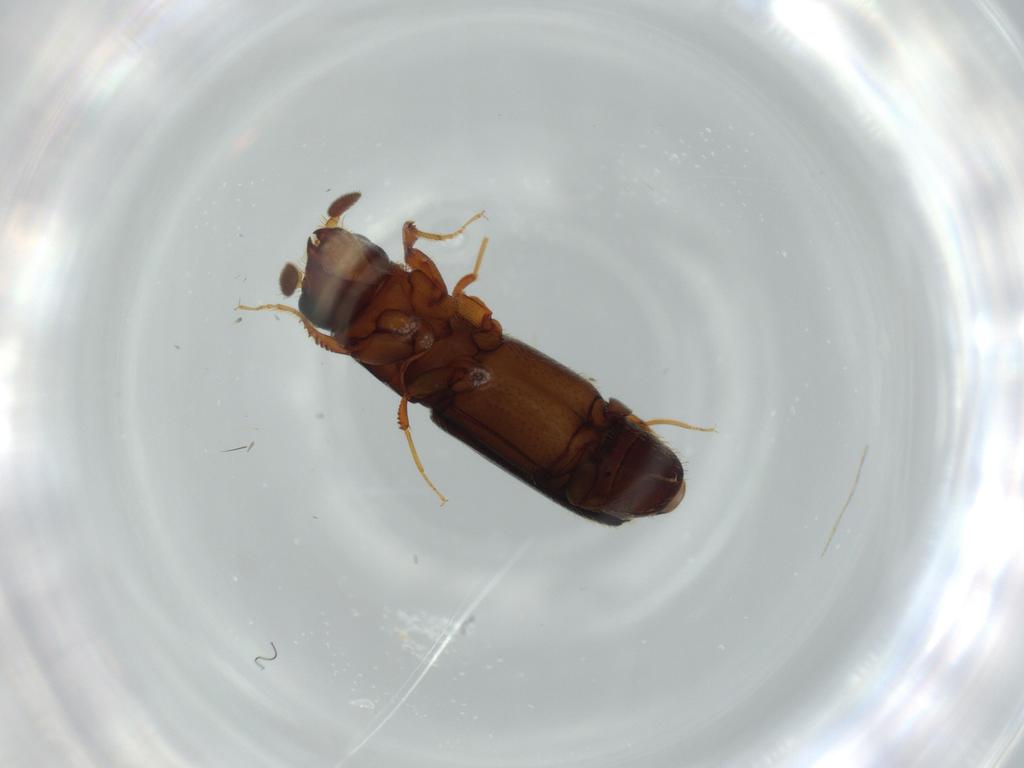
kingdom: Animalia
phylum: Arthropoda
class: Insecta
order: Coleoptera
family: Curculionidae
